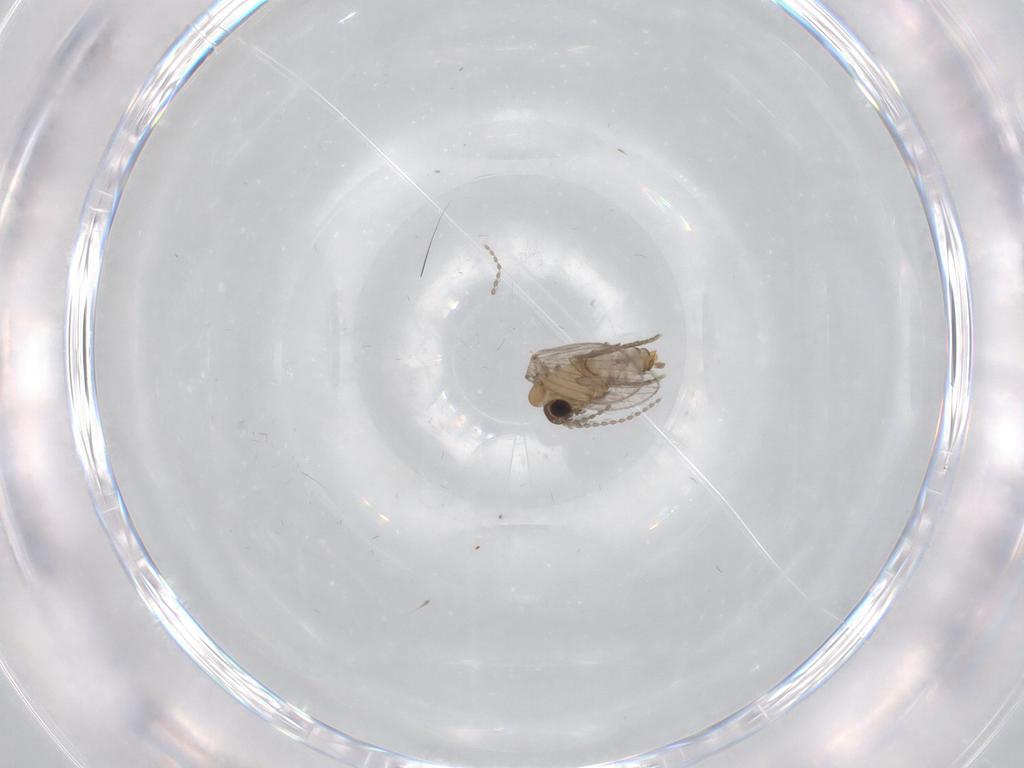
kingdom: Animalia
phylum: Arthropoda
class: Insecta
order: Diptera
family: Psychodidae
